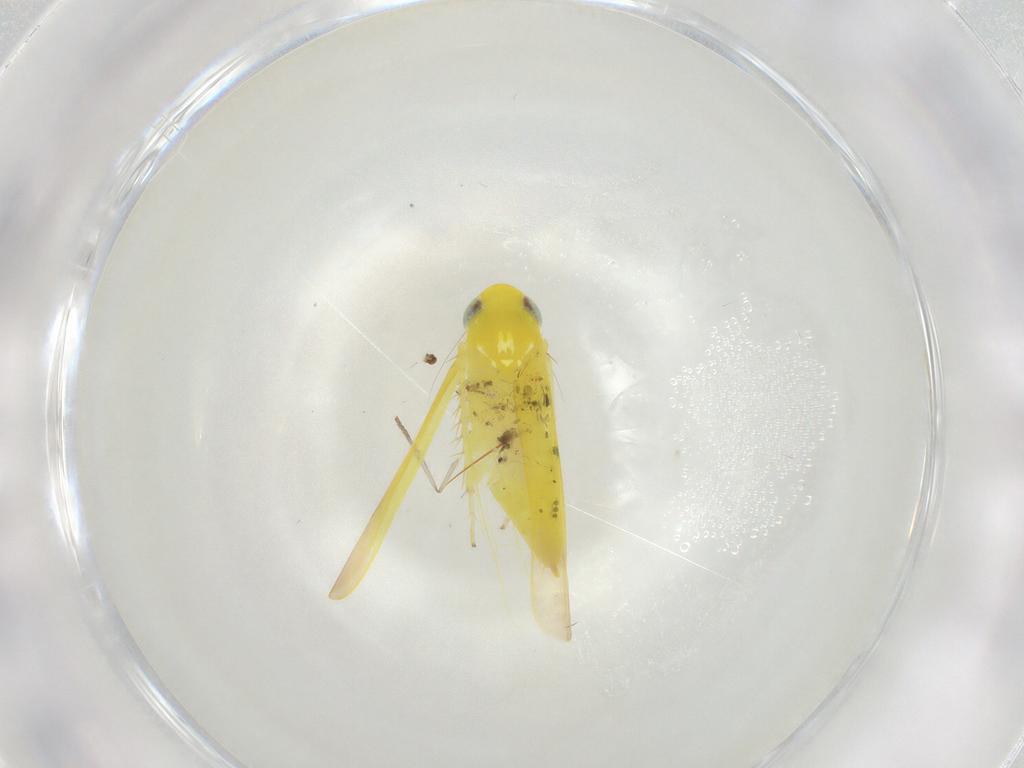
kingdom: Animalia
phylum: Arthropoda
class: Insecta
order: Hemiptera
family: Cicadellidae
